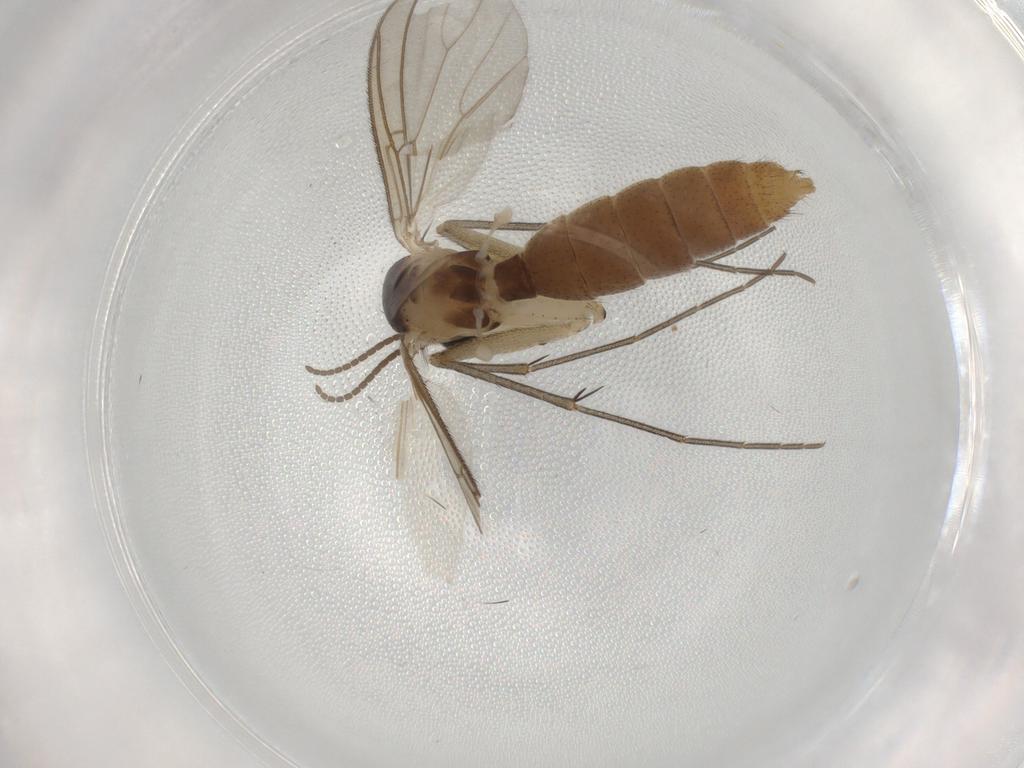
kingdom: Animalia
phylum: Arthropoda
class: Insecta
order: Diptera
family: Mycetophilidae
